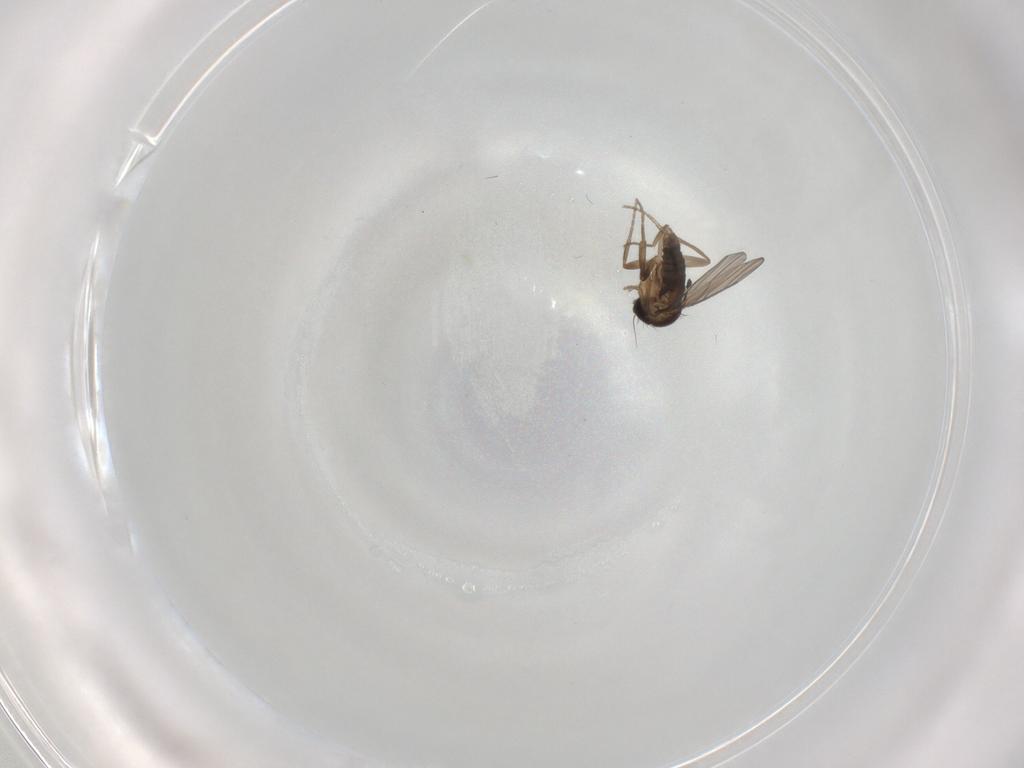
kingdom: Animalia
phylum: Arthropoda
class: Insecta
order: Diptera
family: Phoridae
